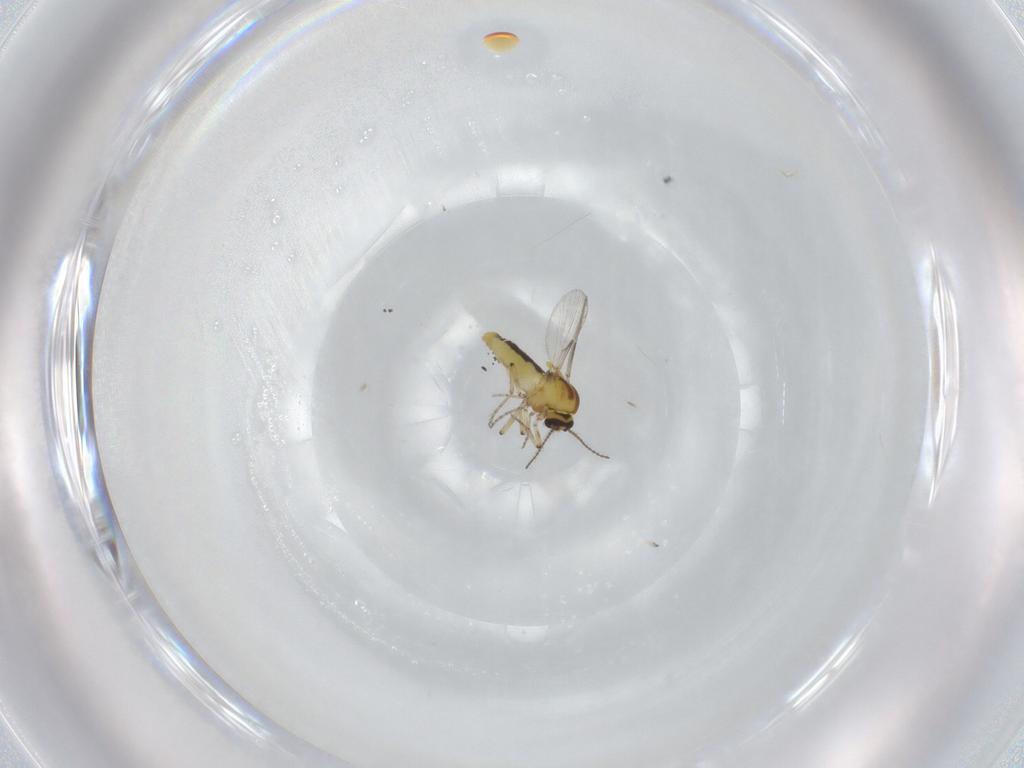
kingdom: Animalia
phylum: Arthropoda
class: Insecta
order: Diptera
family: Ceratopogonidae
